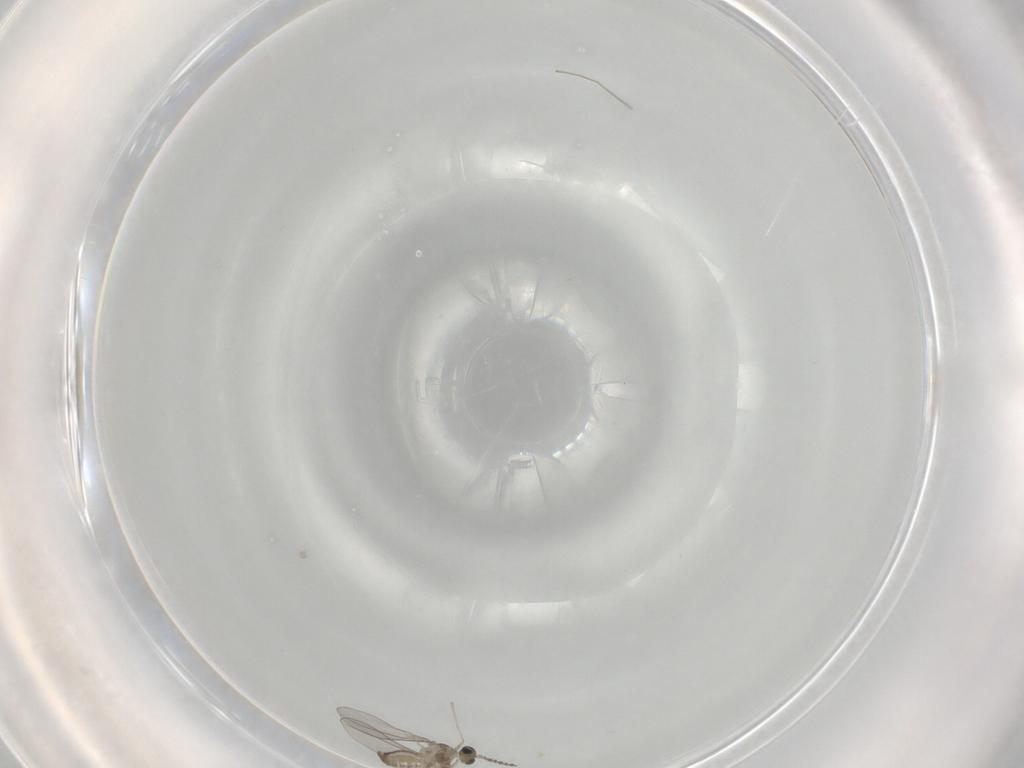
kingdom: Animalia
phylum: Arthropoda
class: Insecta
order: Diptera
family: Cecidomyiidae
